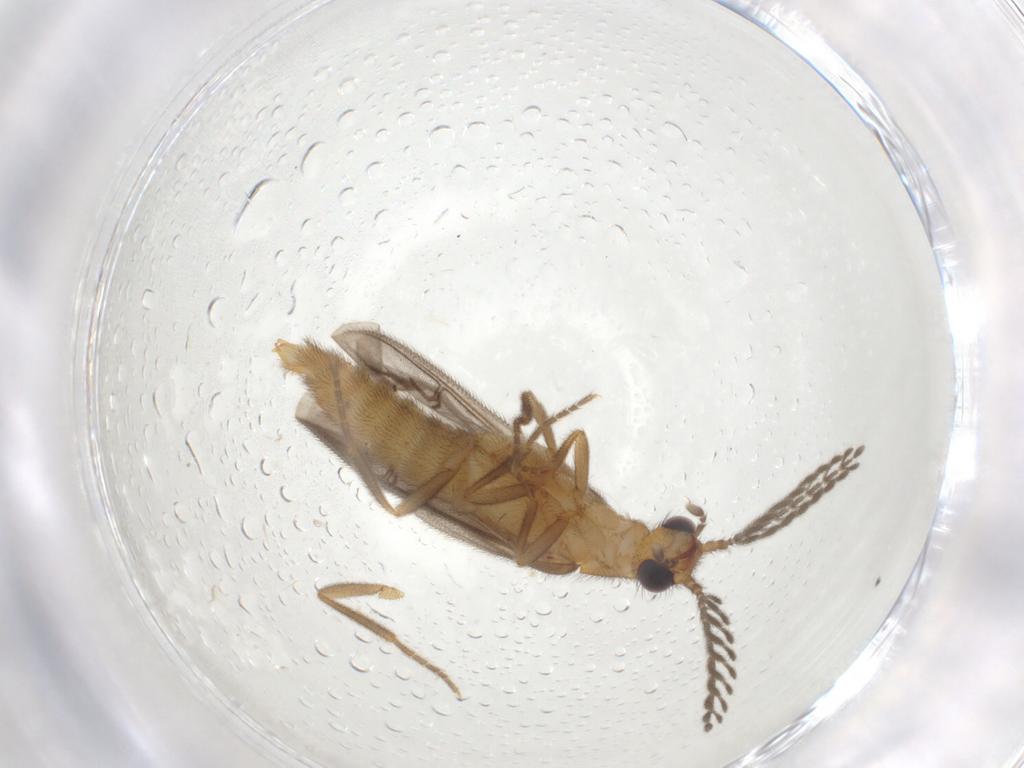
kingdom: Animalia
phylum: Arthropoda
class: Insecta
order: Coleoptera
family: Phengodidae
